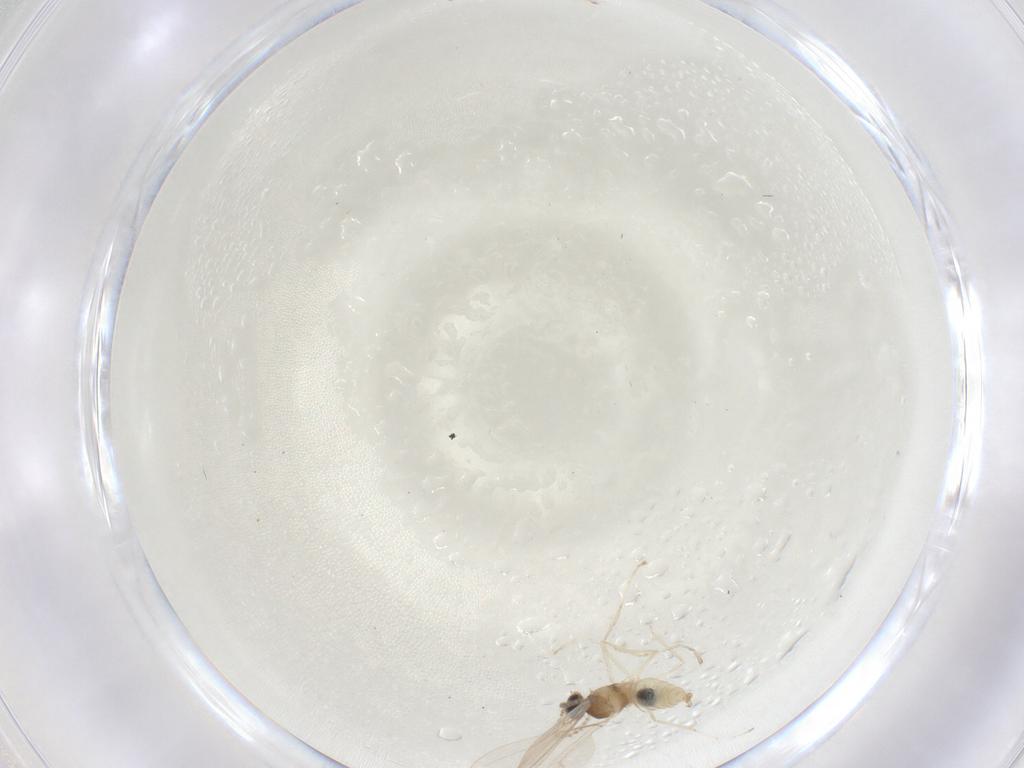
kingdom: Animalia
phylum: Arthropoda
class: Insecta
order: Diptera
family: Cecidomyiidae
